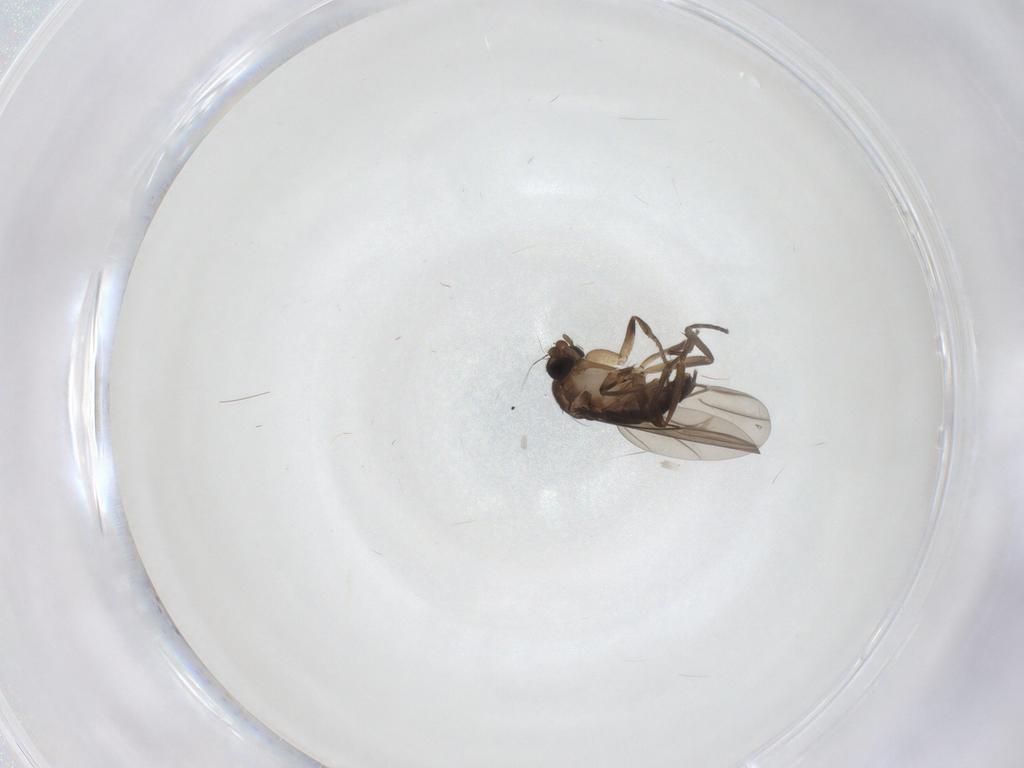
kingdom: Animalia
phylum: Arthropoda
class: Insecta
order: Diptera
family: Phoridae
